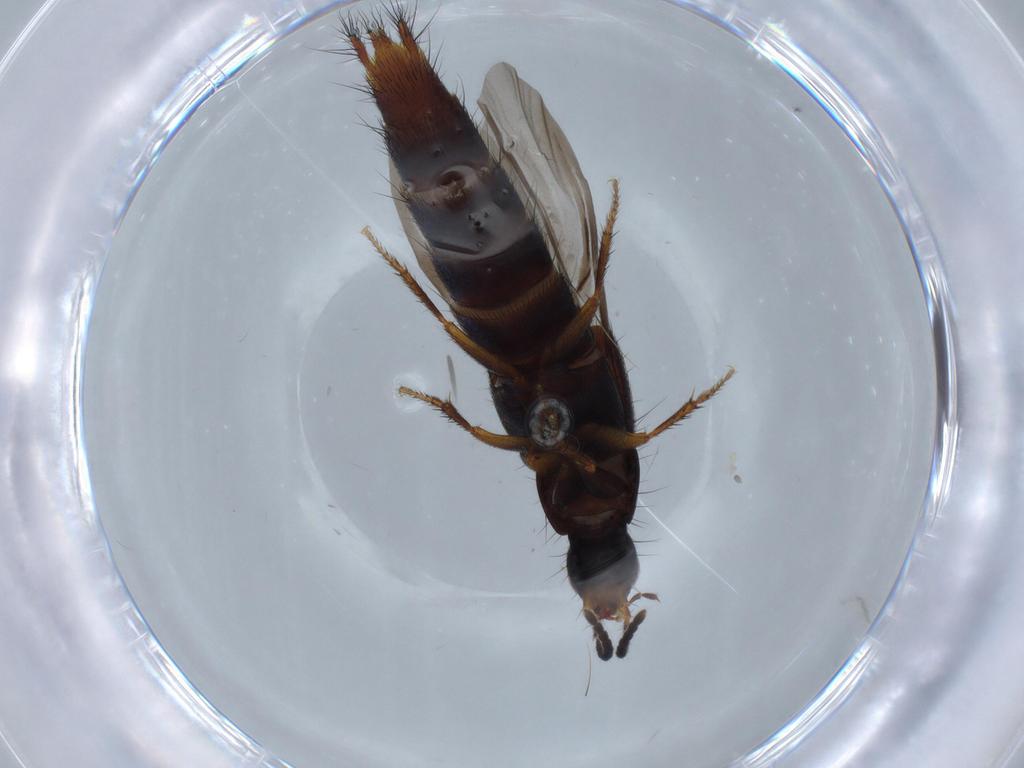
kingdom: Animalia
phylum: Arthropoda
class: Insecta
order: Coleoptera
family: Staphylinidae
